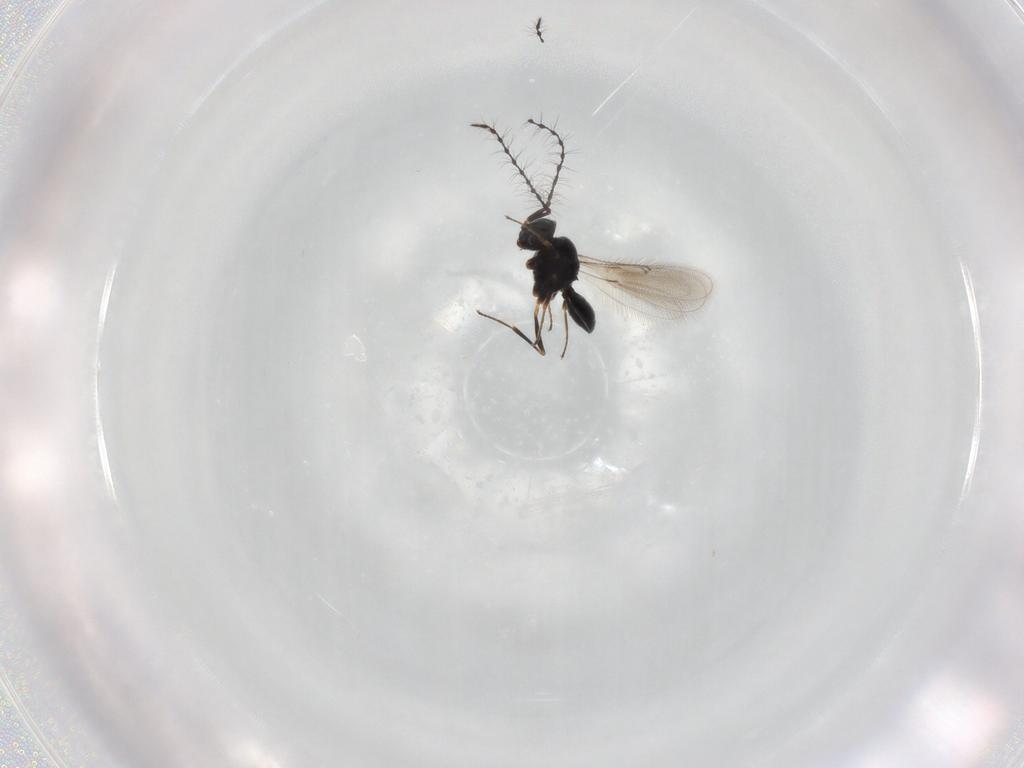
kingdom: Animalia
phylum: Arthropoda
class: Insecta
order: Hymenoptera
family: Scelionidae
